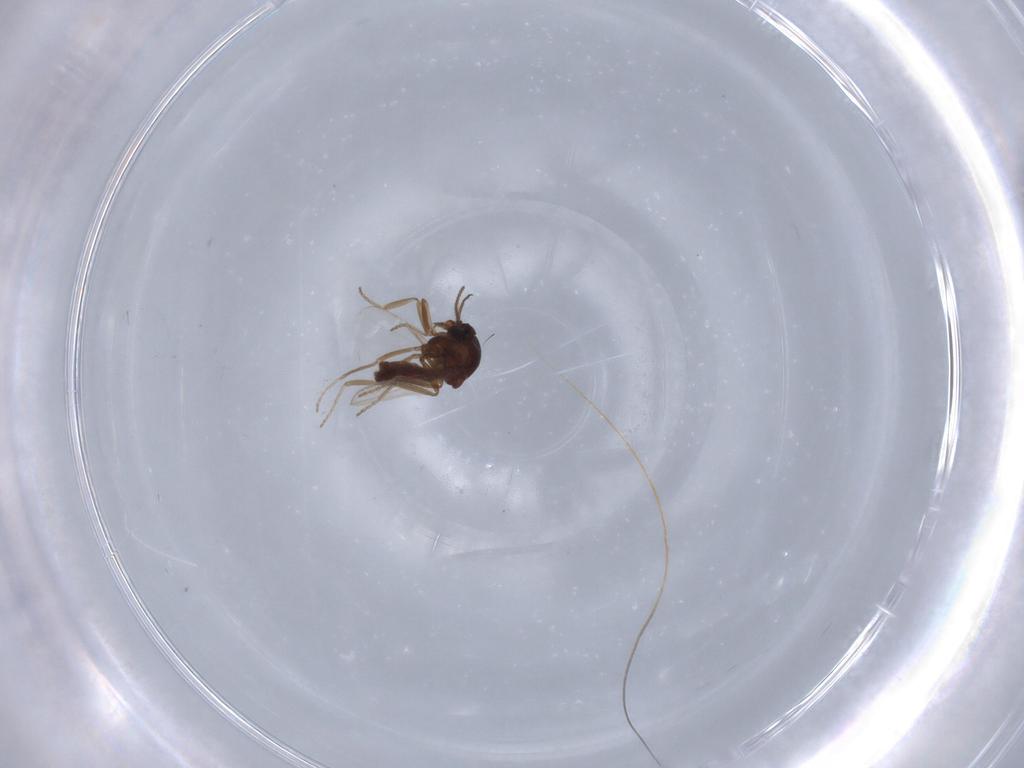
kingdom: Animalia
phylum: Arthropoda
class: Insecta
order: Diptera
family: Ceratopogonidae
